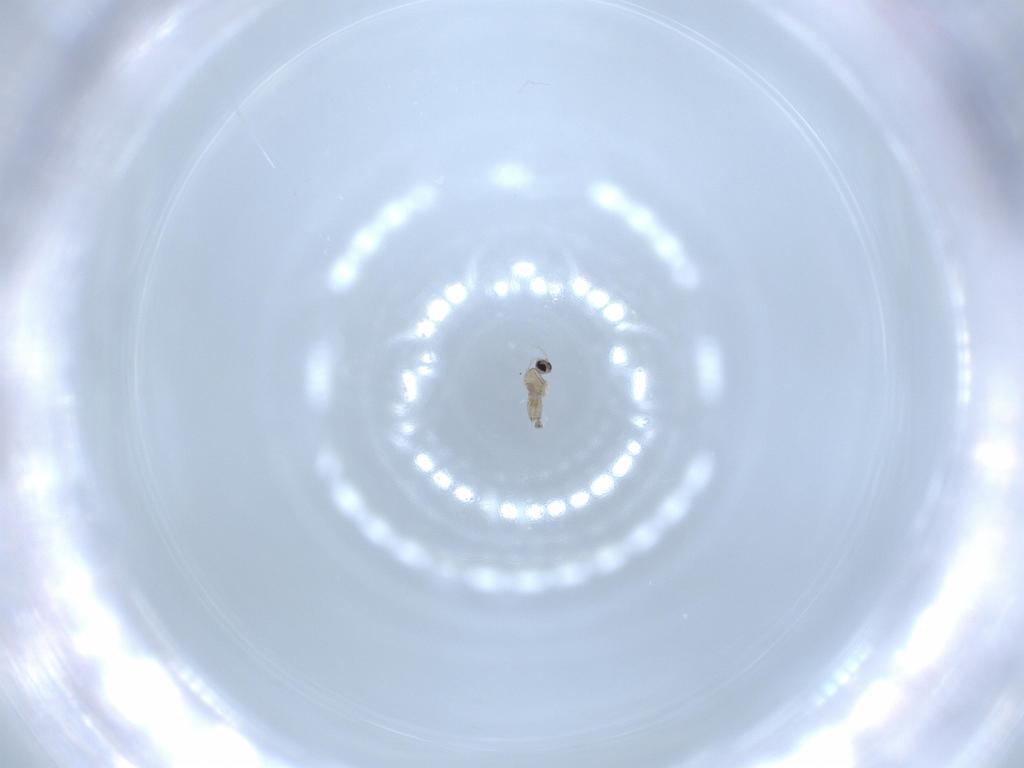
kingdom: Animalia
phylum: Arthropoda
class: Insecta
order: Diptera
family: Cecidomyiidae
